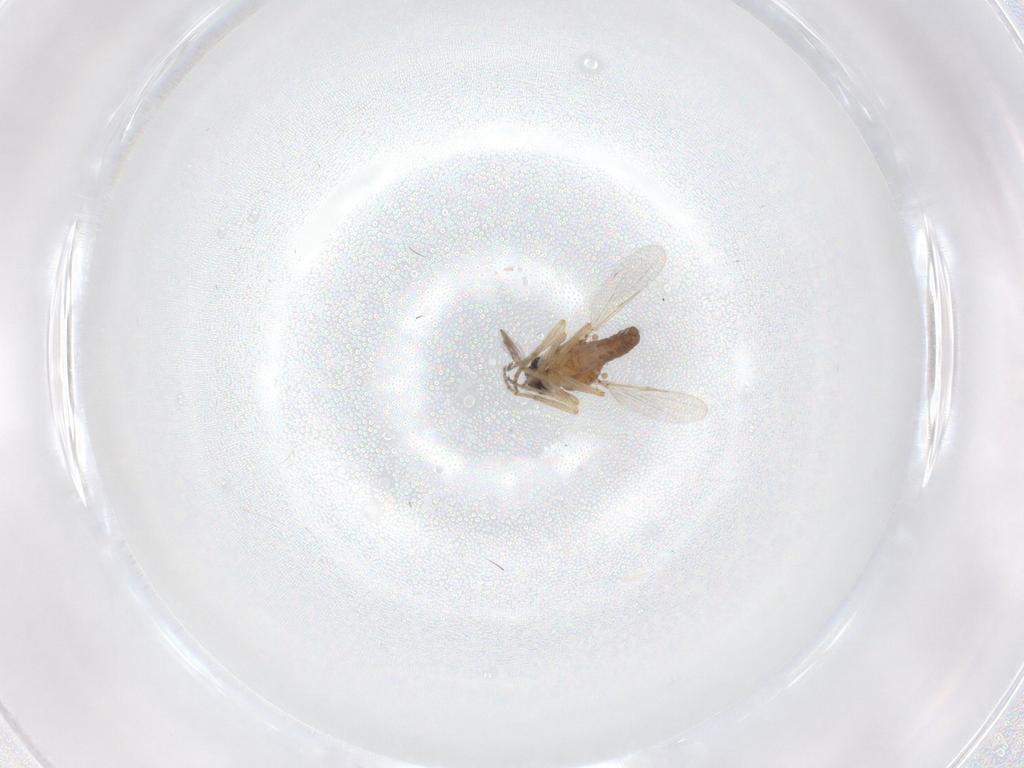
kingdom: Animalia
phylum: Arthropoda
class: Insecta
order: Diptera
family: Ceratopogonidae
